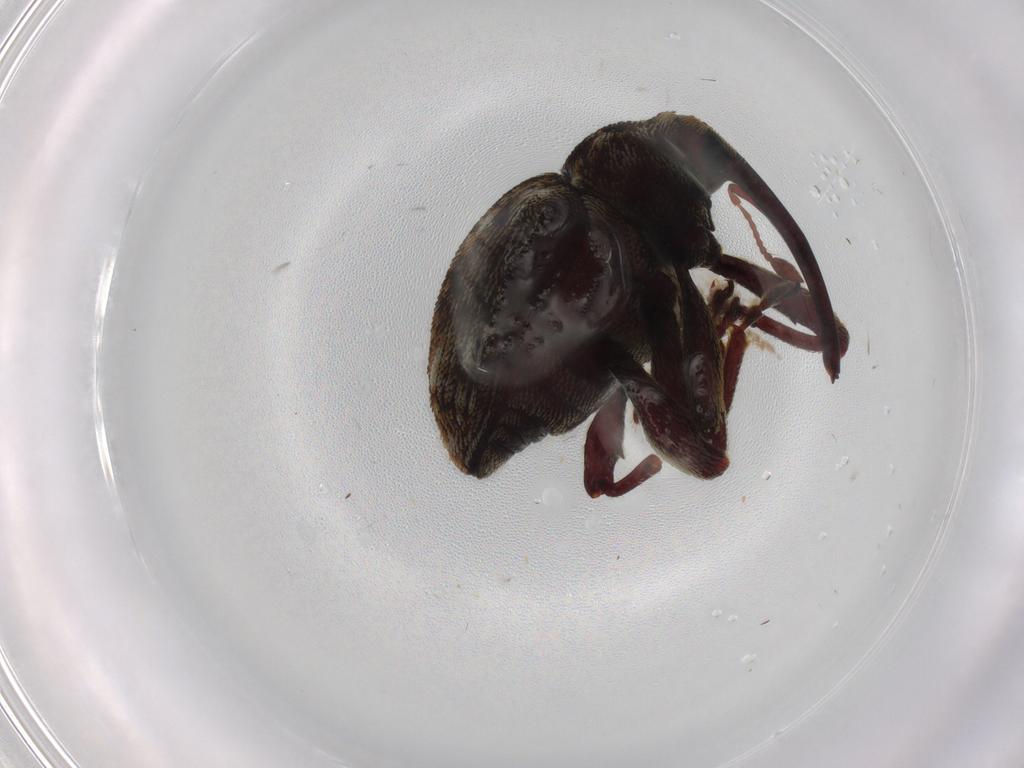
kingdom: Animalia
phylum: Arthropoda
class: Insecta
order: Coleoptera
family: Curculionidae
